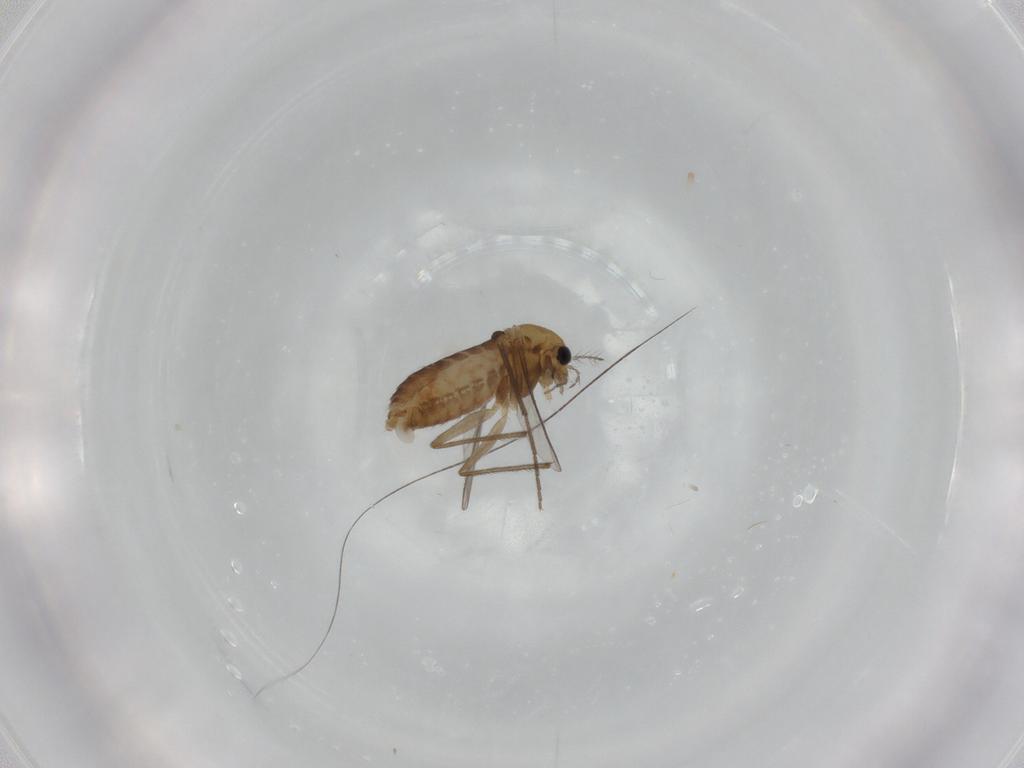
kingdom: Animalia
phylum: Arthropoda
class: Insecta
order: Diptera
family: Chironomidae
